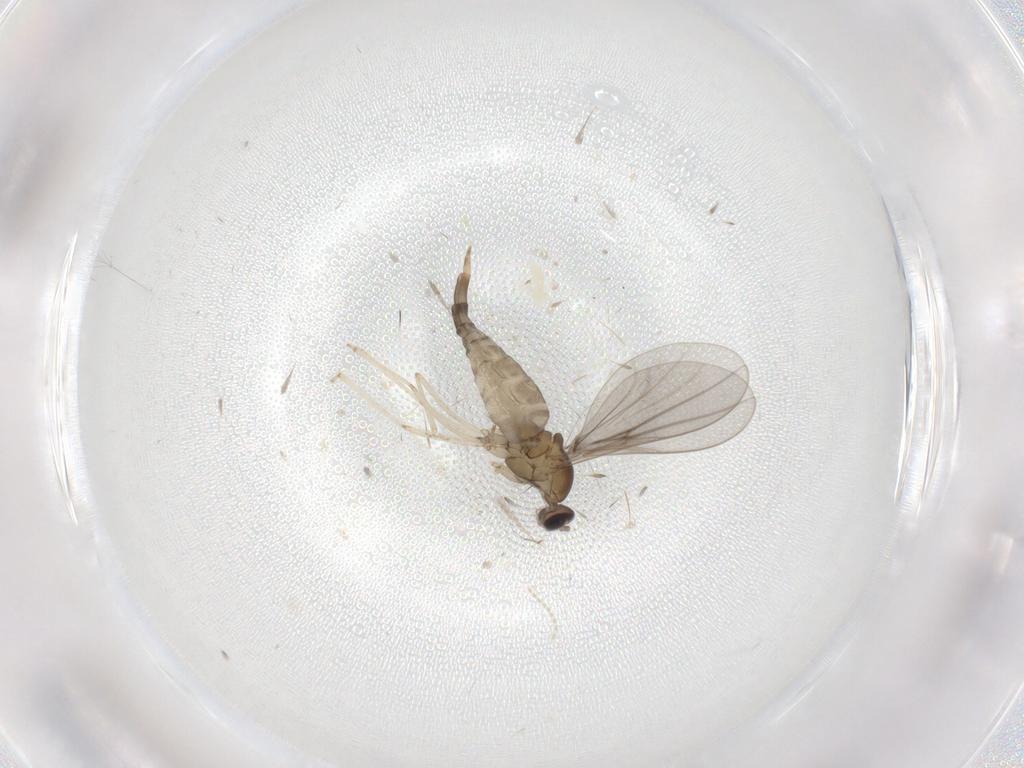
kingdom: Animalia
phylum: Arthropoda
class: Insecta
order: Diptera
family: Cecidomyiidae
